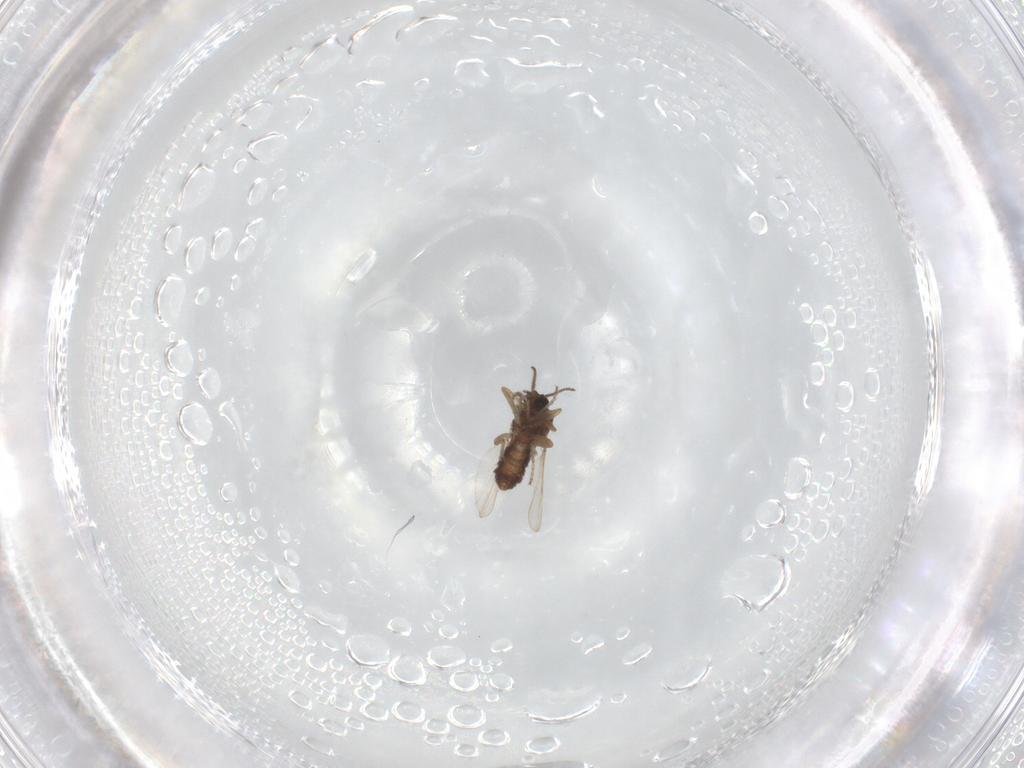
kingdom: Animalia
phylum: Arthropoda
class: Insecta
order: Diptera
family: Ceratopogonidae
